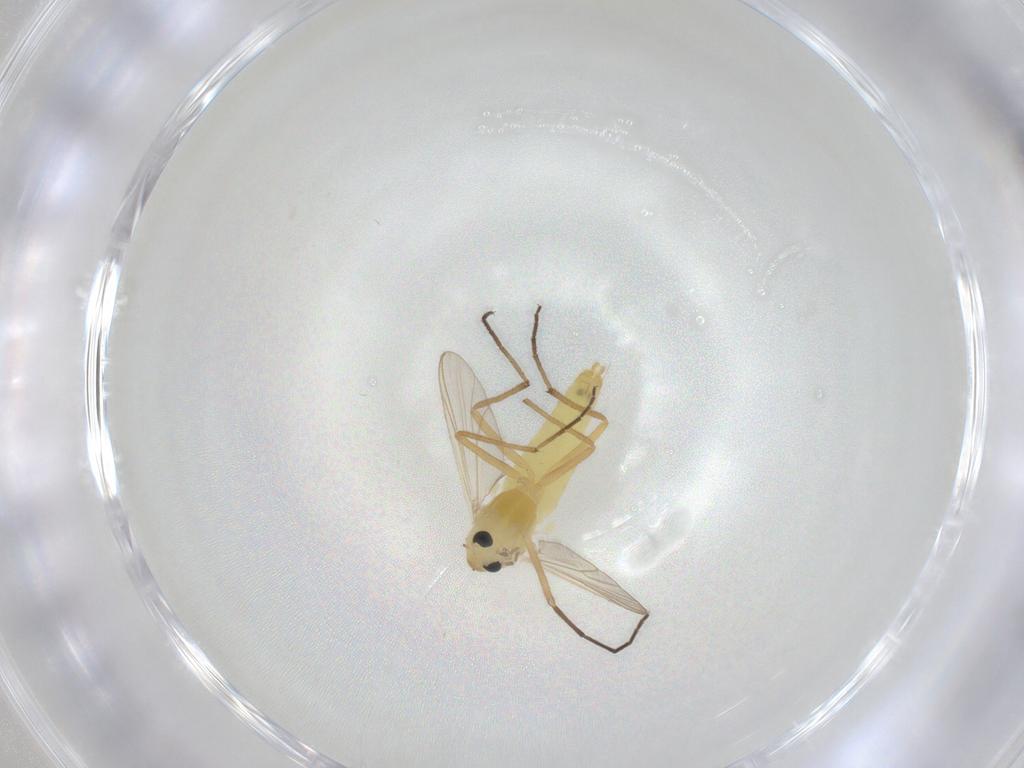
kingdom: Animalia
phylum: Arthropoda
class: Insecta
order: Diptera
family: Chironomidae
